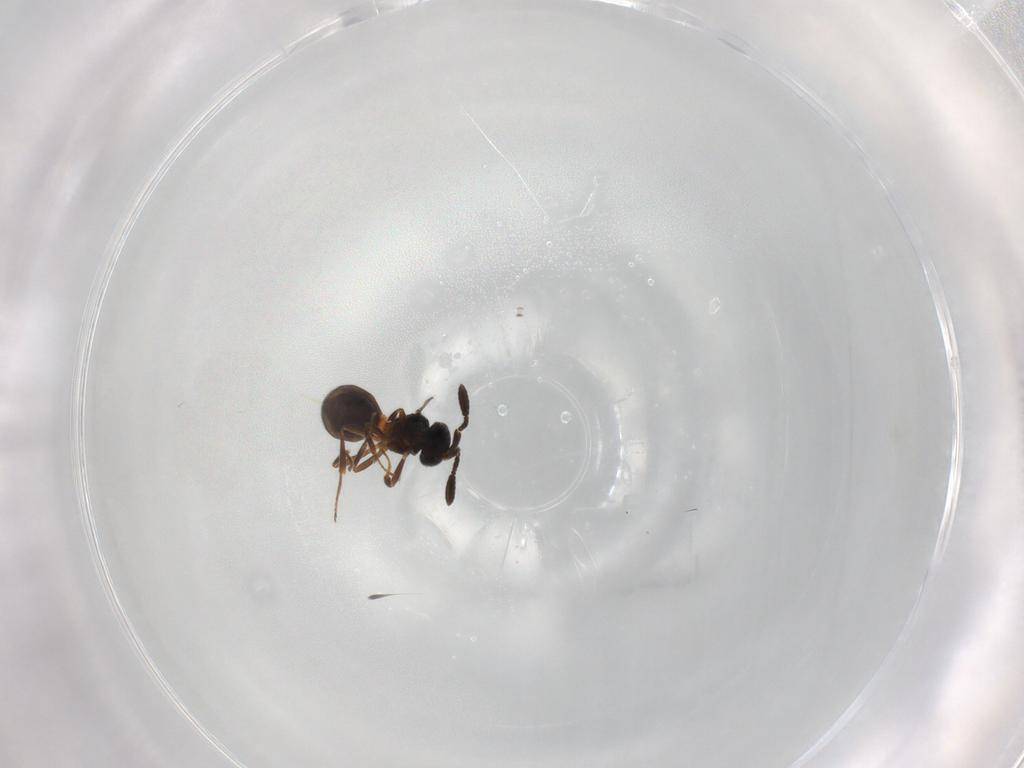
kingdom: Animalia
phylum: Arthropoda
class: Insecta
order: Hymenoptera
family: Scelionidae
